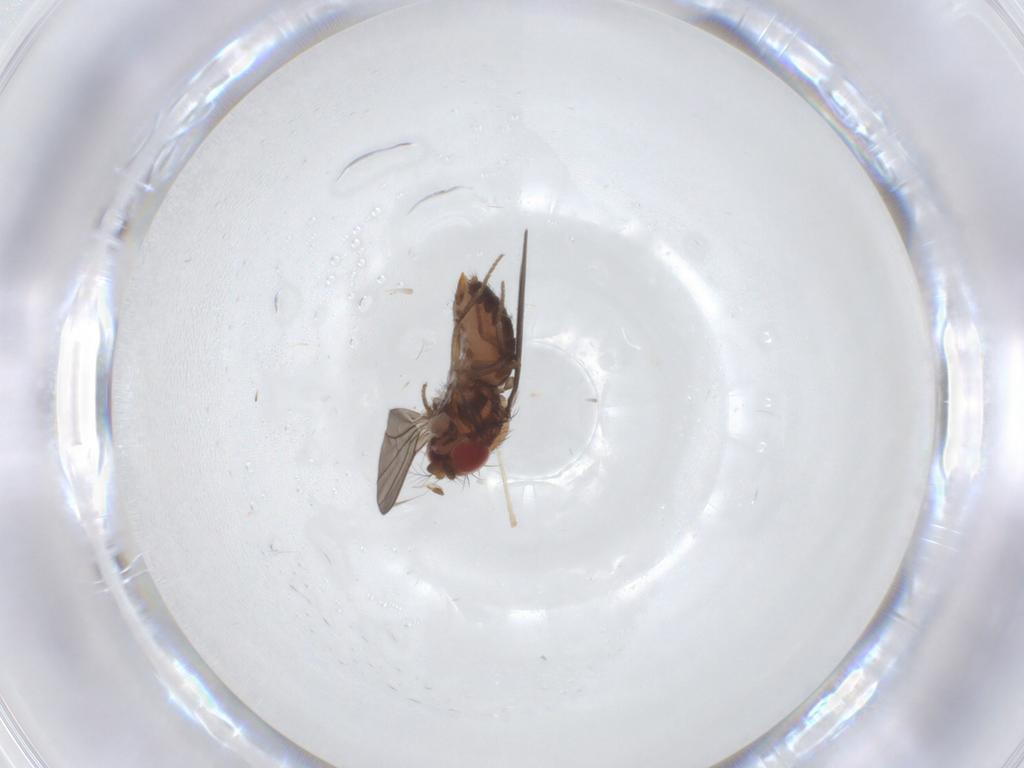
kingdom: Animalia
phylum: Arthropoda
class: Insecta
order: Diptera
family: Drosophilidae
